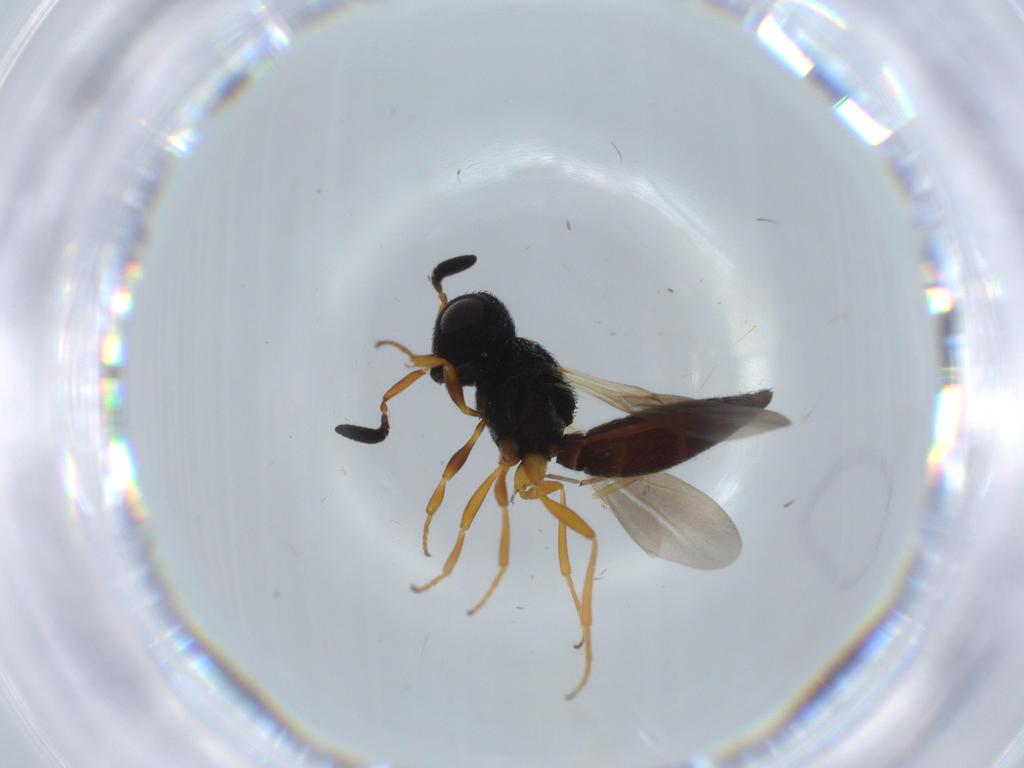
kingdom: Animalia
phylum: Arthropoda
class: Insecta
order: Hymenoptera
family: Scelionidae
